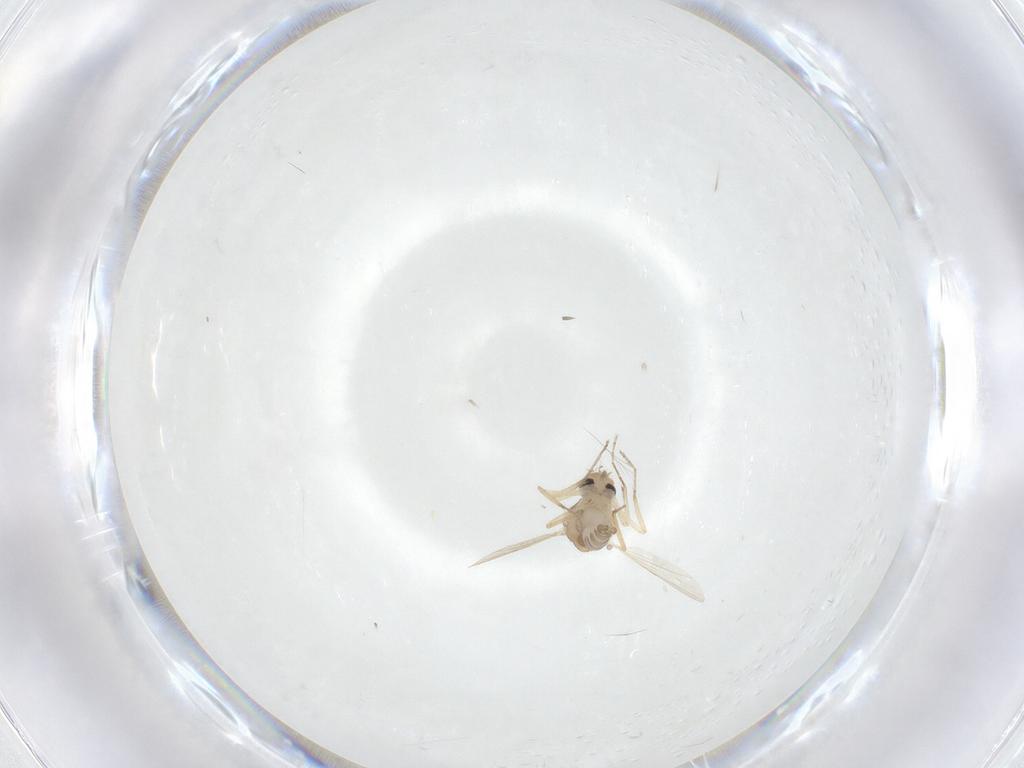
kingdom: Animalia
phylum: Arthropoda
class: Insecta
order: Diptera
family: Ceratopogonidae
